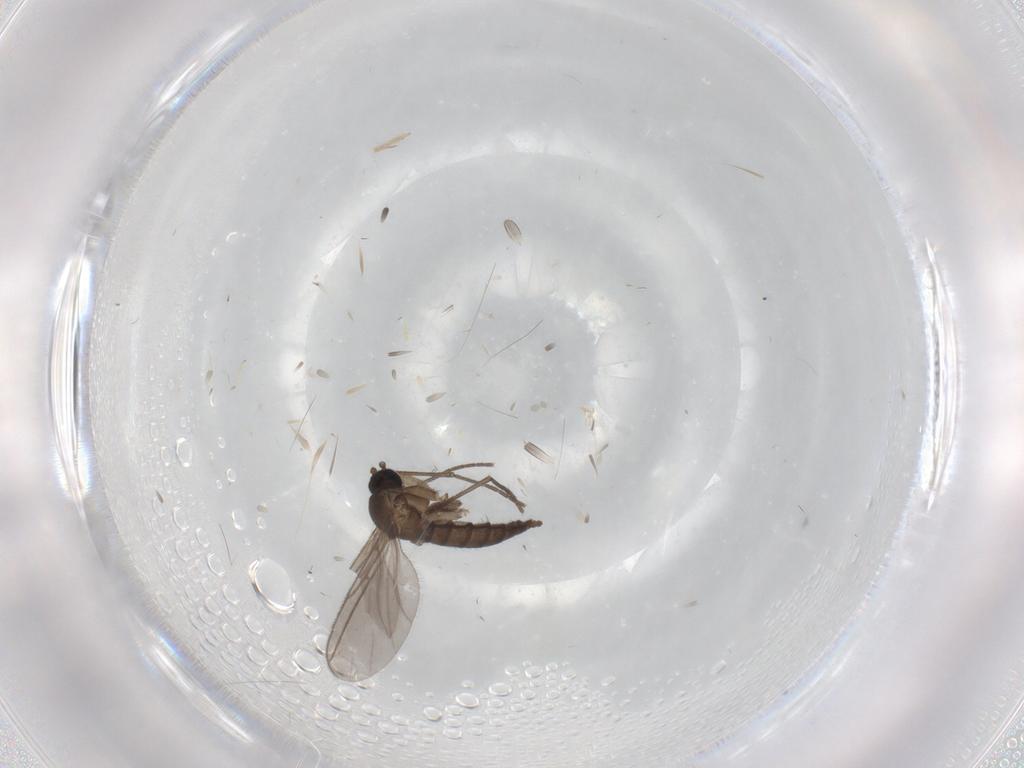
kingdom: Animalia
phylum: Arthropoda
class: Insecta
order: Diptera
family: Sciaridae
